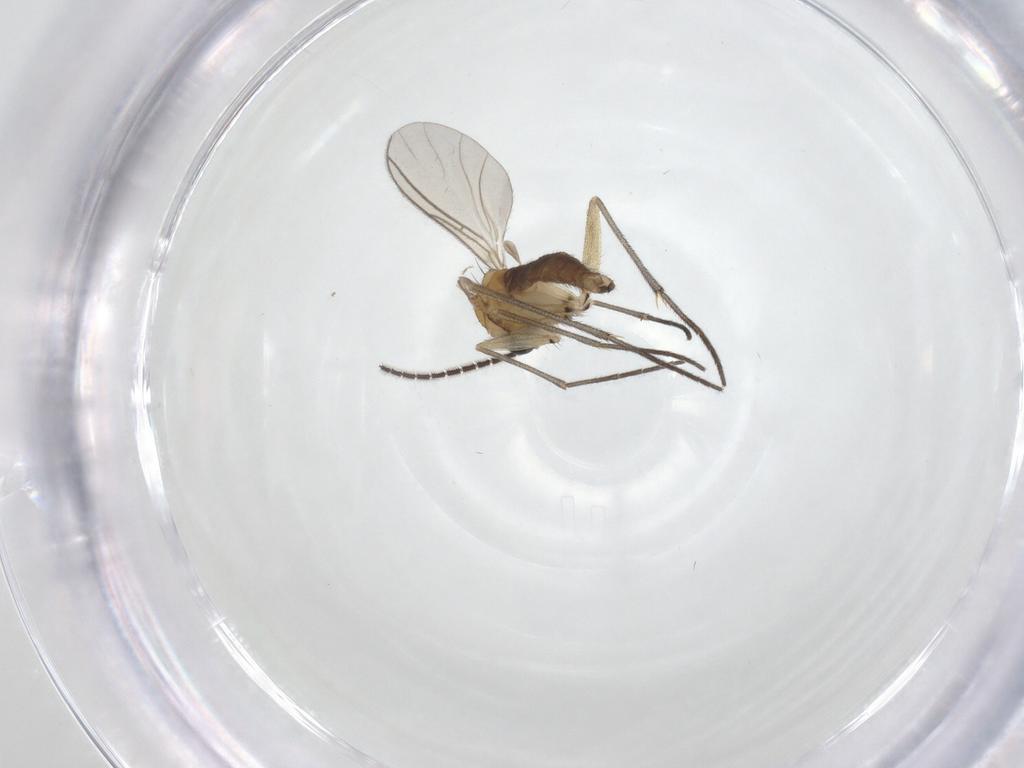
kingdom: Animalia
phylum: Arthropoda
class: Insecta
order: Diptera
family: Sciaridae
